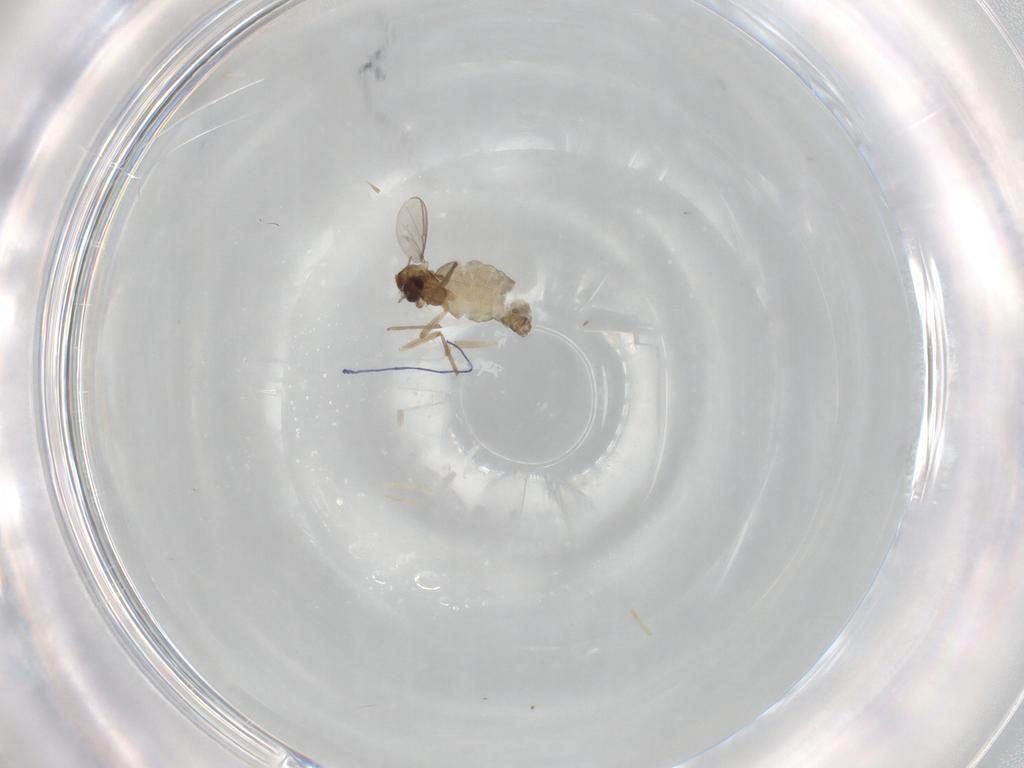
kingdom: Animalia
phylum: Arthropoda
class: Insecta
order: Diptera
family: Chironomidae
